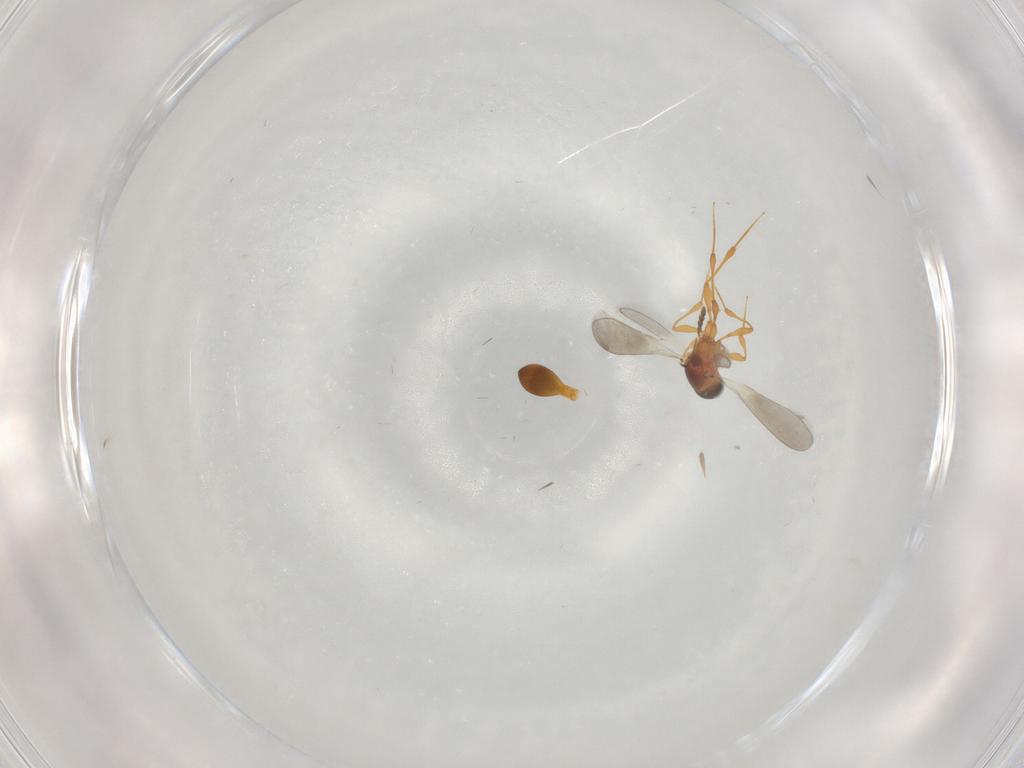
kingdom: Animalia
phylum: Arthropoda
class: Insecta
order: Hymenoptera
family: Platygastridae
